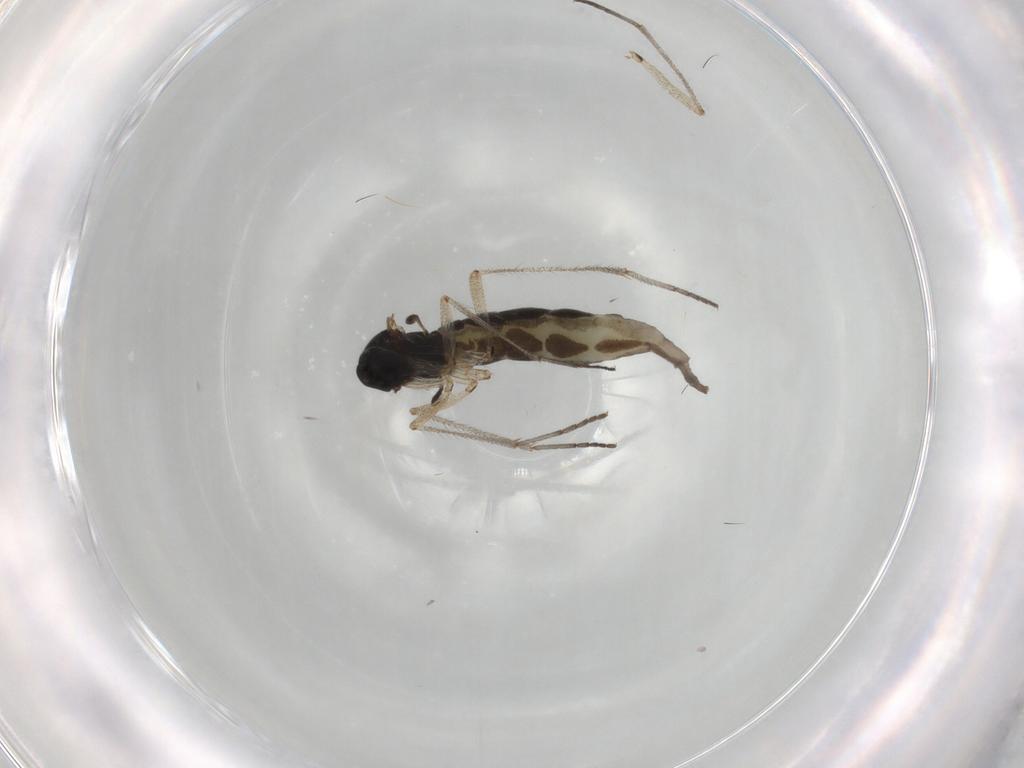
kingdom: Animalia
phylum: Arthropoda
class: Insecta
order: Diptera
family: Phoridae
